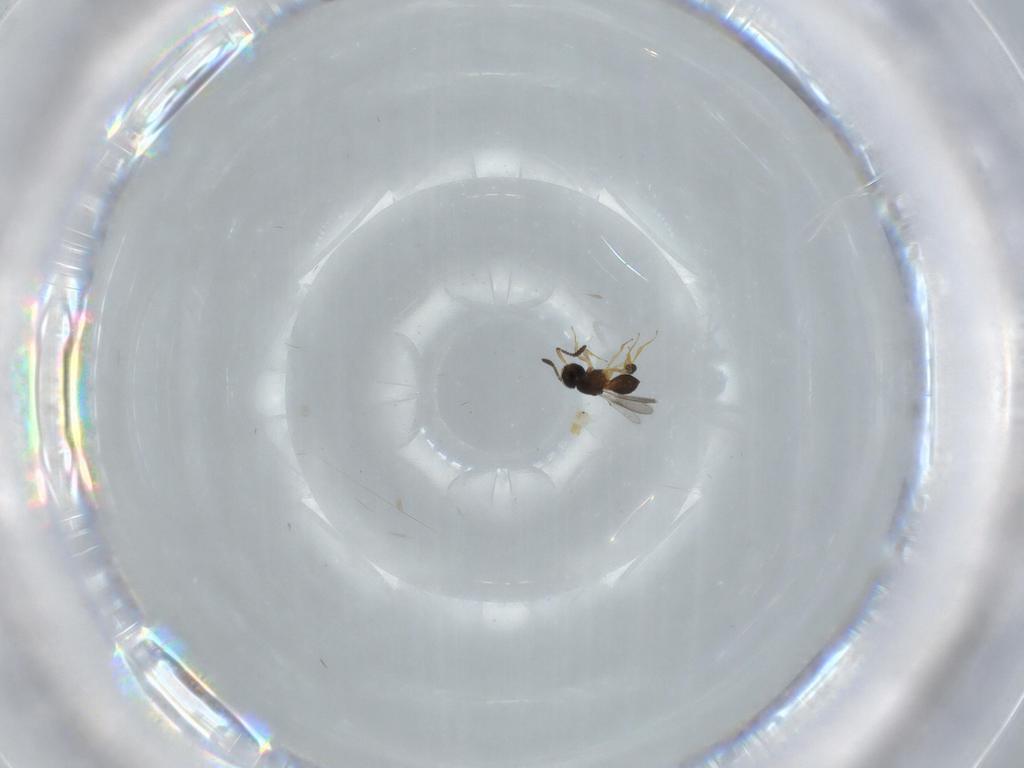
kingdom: Animalia
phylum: Arthropoda
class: Insecta
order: Hymenoptera
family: Scelionidae
